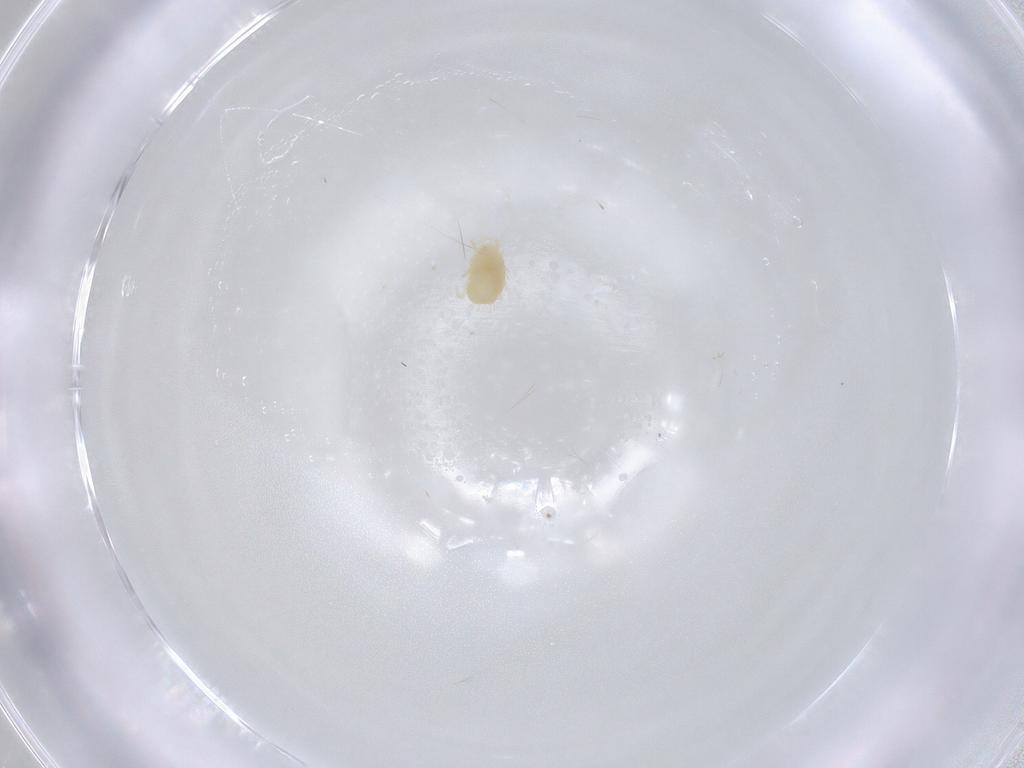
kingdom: Animalia
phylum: Arthropoda
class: Arachnida
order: Trombidiformes
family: Tetranychidae
